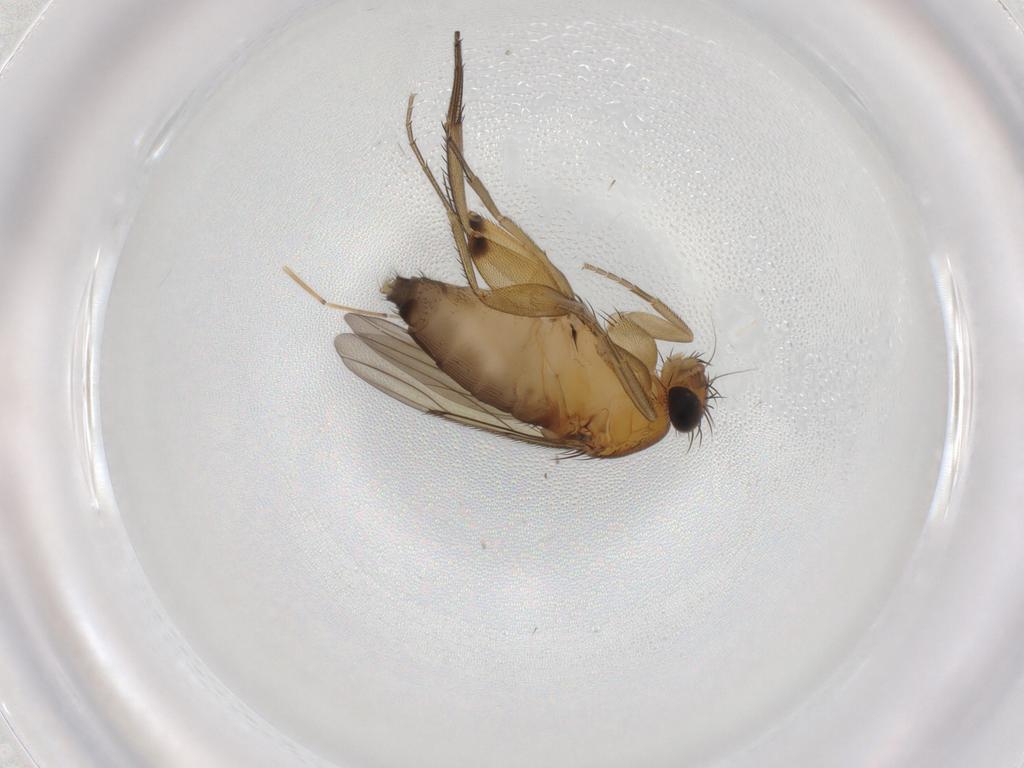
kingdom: Animalia
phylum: Arthropoda
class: Insecta
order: Diptera
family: Phoridae
